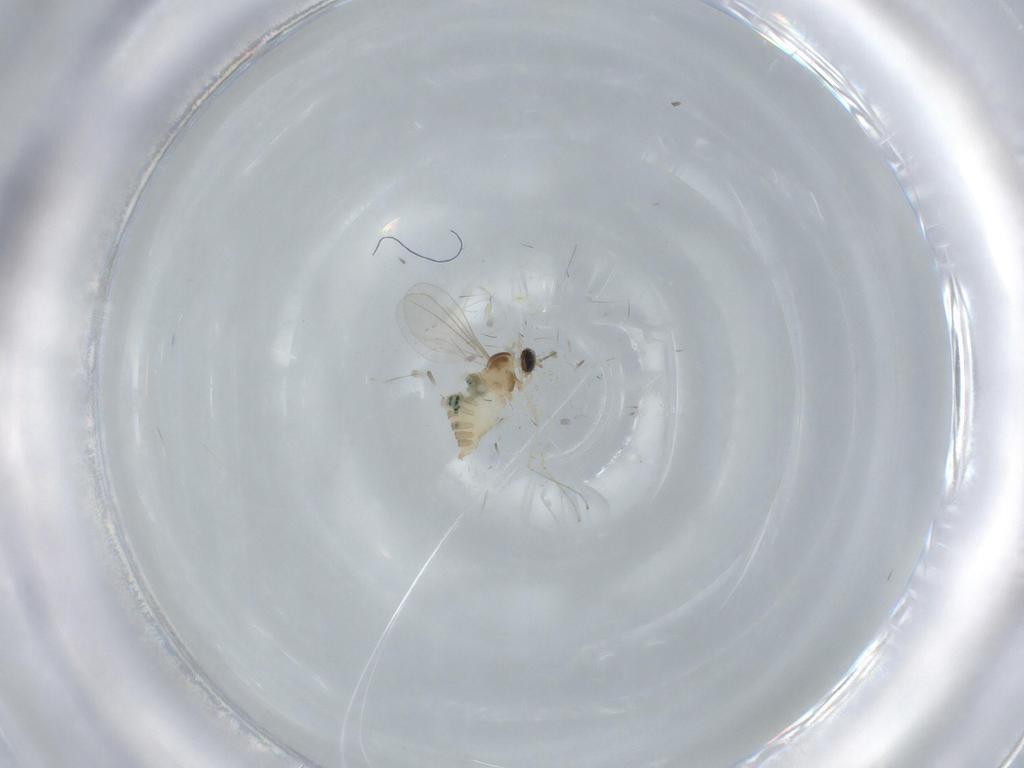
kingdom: Animalia
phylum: Arthropoda
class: Insecta
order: Diptera
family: Cecidomyiidae
